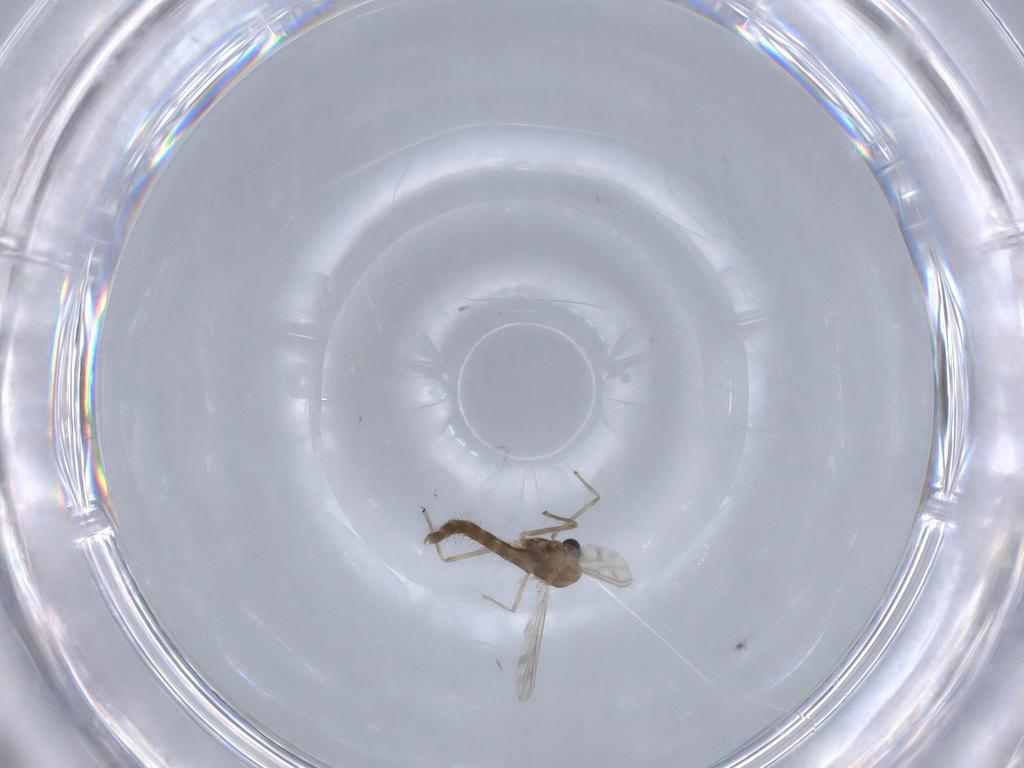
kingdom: Animalia
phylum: Arthropoda
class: Insecta
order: Diptera
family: Chironomidae
